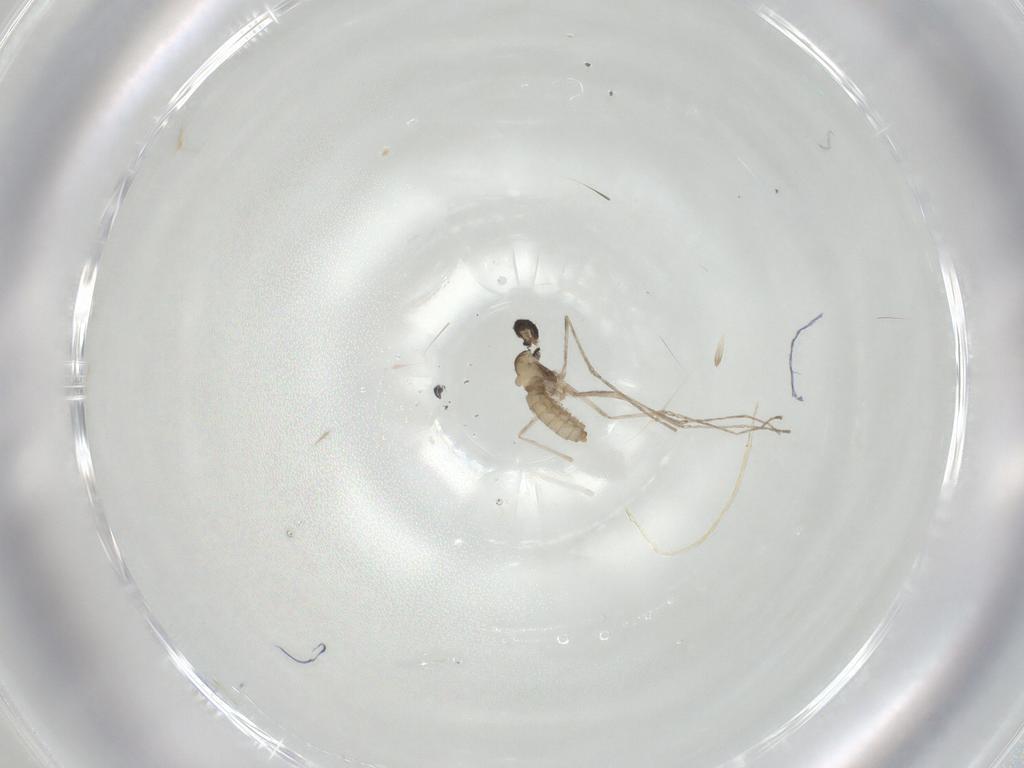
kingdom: Animalia
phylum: Arthropoda
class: Insecta
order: Diptera
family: Cecidomyiidae
